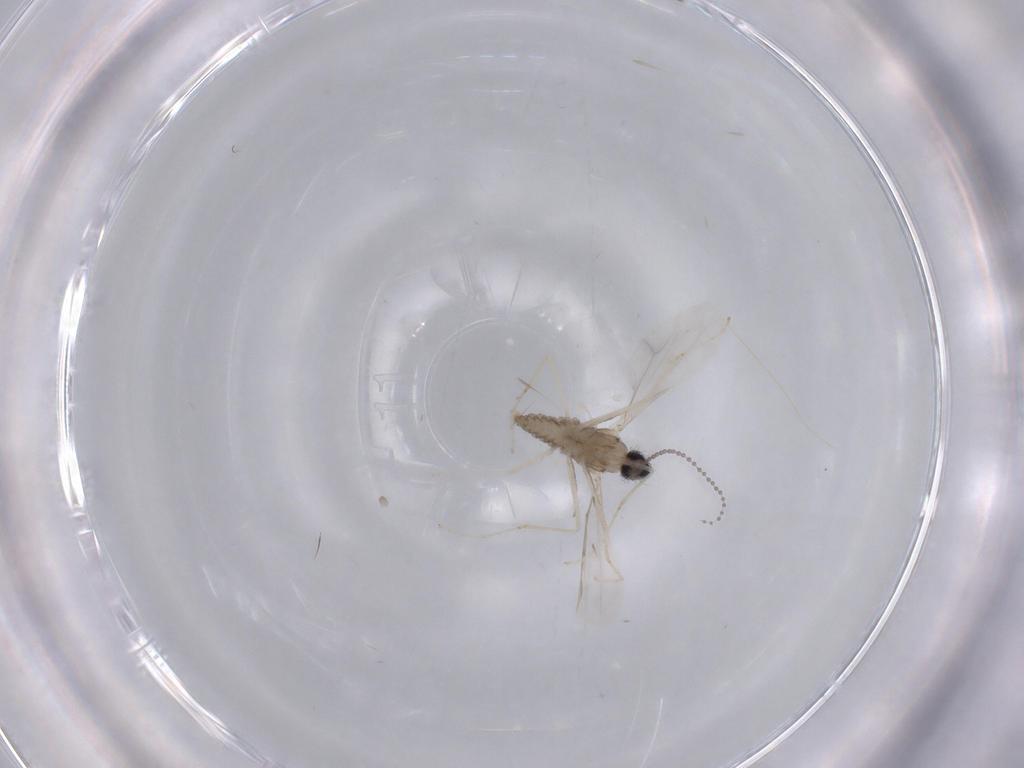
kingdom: Animalia
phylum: Arthropoda
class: Insecta
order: Diptera
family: Cecidomyiidae
